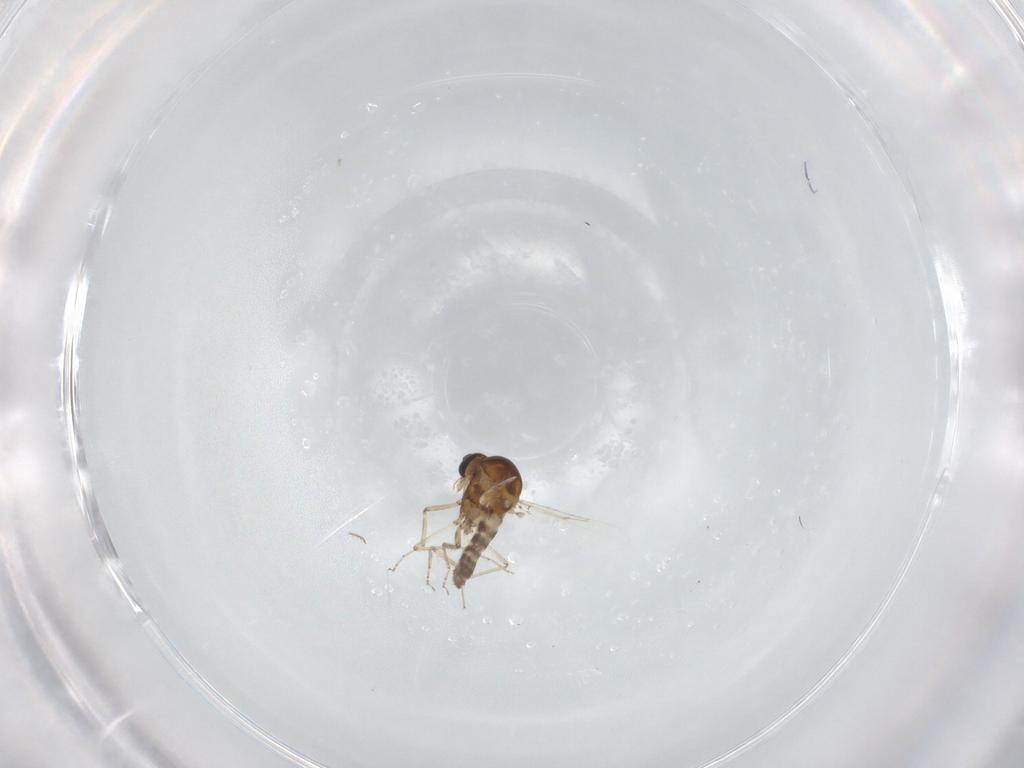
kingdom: Animalia
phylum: Arthropoda
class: Insecta
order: Diptera
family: Ceratopogonidae
